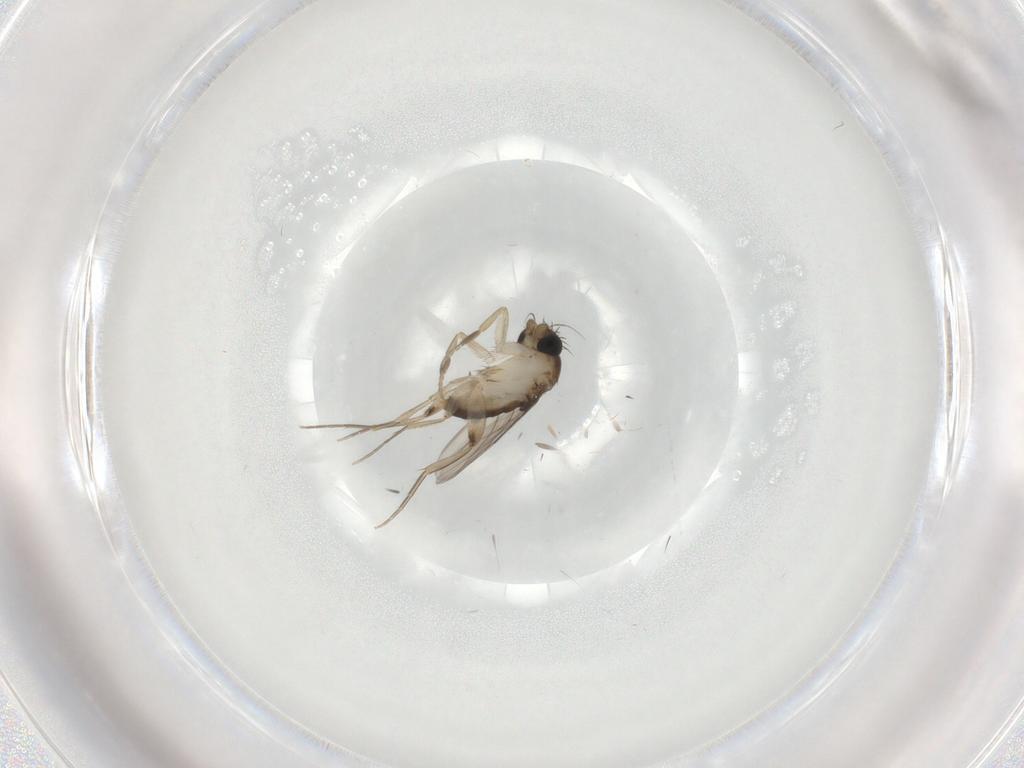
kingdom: Animalia
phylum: Arthropoda
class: Insecta
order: Diptera
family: Phoridae
